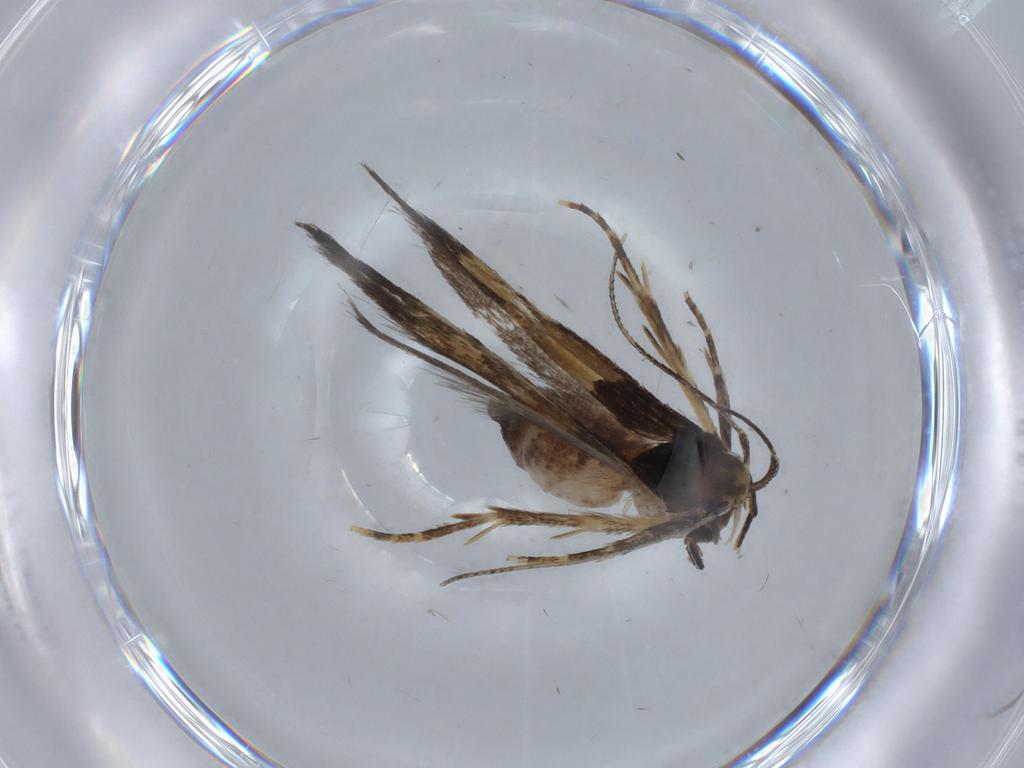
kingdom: Animalia
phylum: Arthropoda
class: Insecta
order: Lepidoptera
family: Cosmopterigidae
